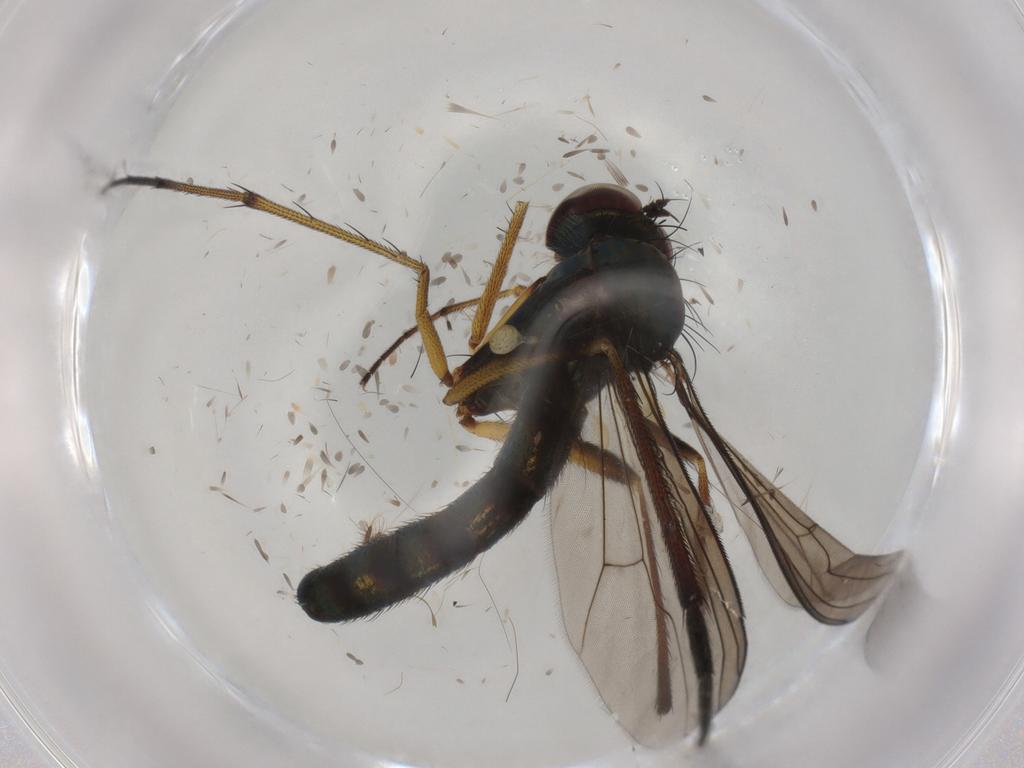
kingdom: Animalia
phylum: Arthropoda
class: Insecta
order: Diptera
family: Dolichopodidae
